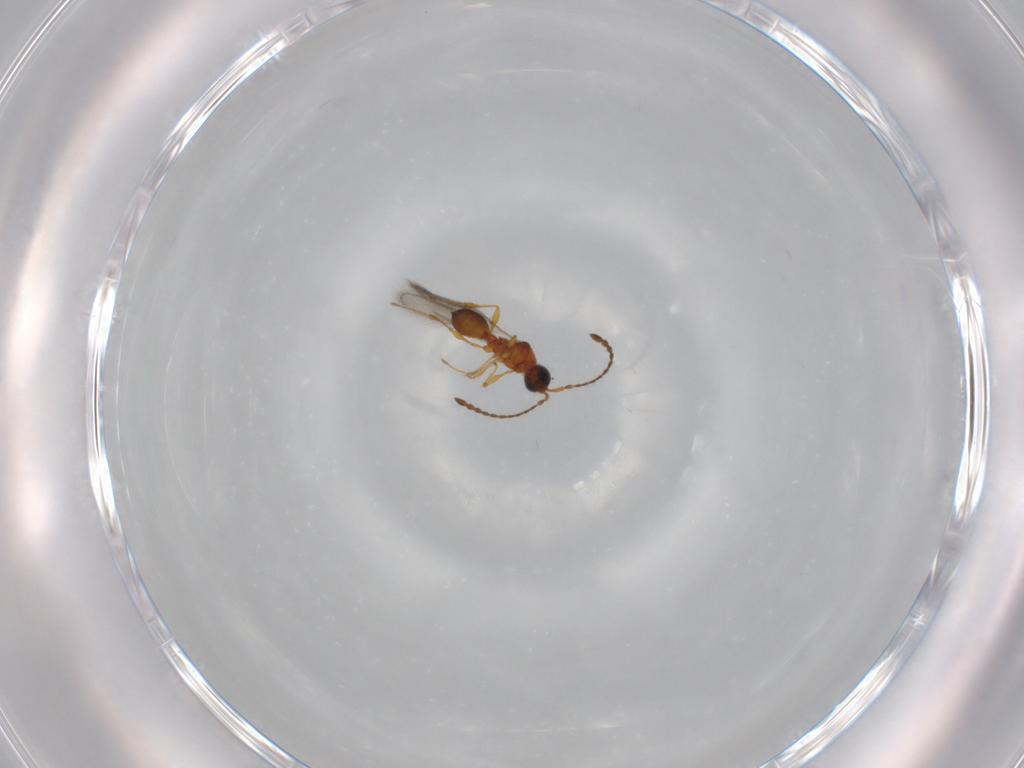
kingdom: Animalia
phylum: Arthropoda
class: Insecta
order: Hymenoptera
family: Diapriidae
